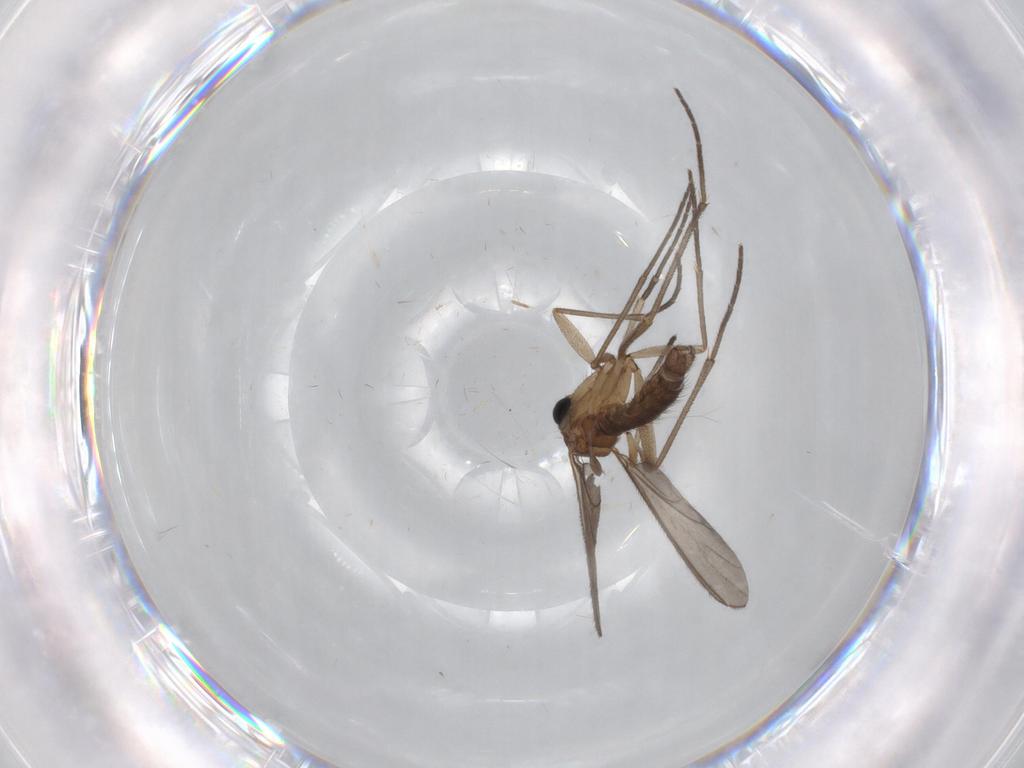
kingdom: Animalia
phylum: Arthropoda
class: Insecta
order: Diptera
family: Sciaridae
